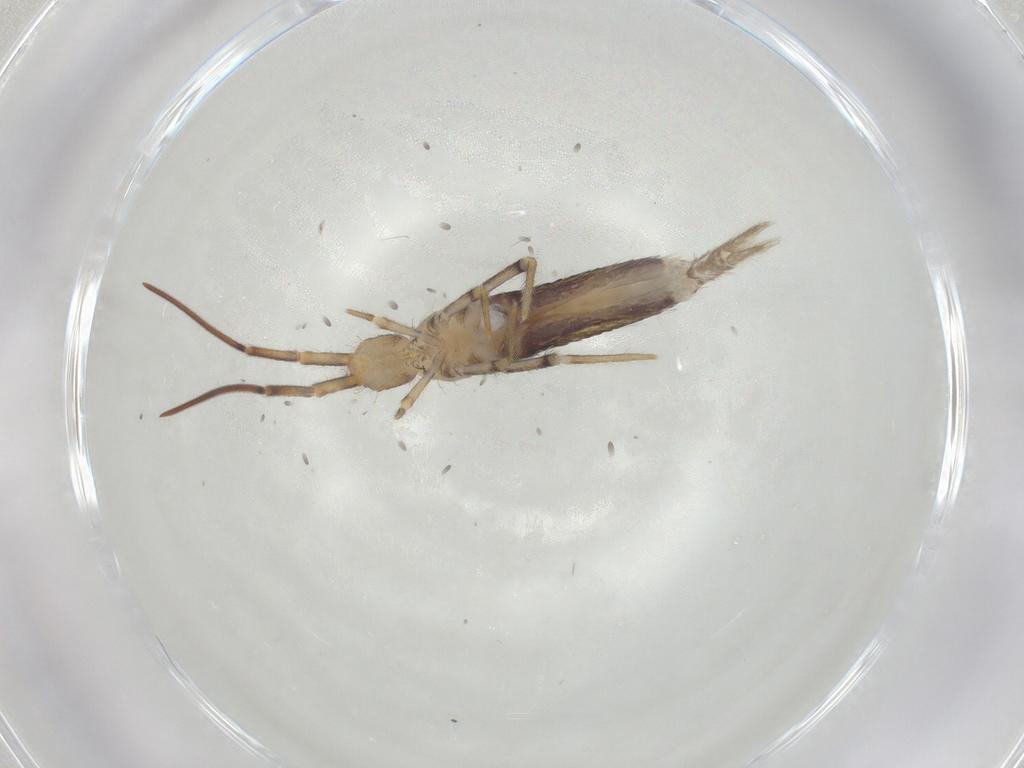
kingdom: Animalia
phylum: Arthropoda
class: Collembola
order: Poduromorpha
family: Hypogastruridae
